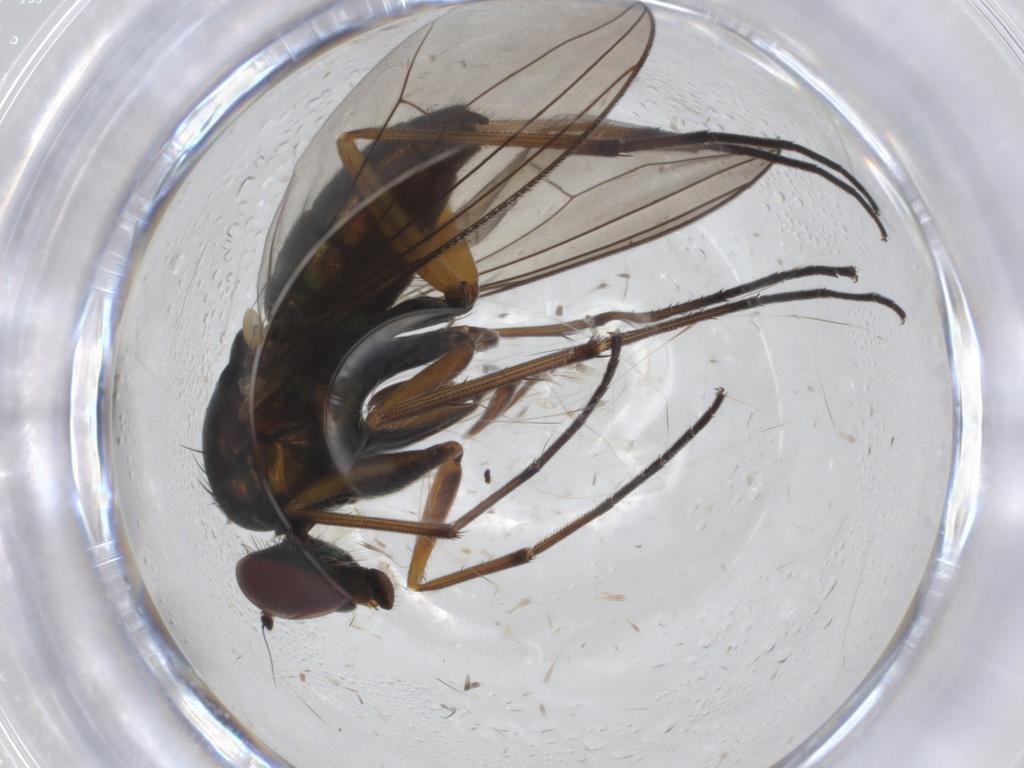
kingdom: Animalia
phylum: Arthropoda
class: Insecta
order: Diptera
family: Dolichopodidae
